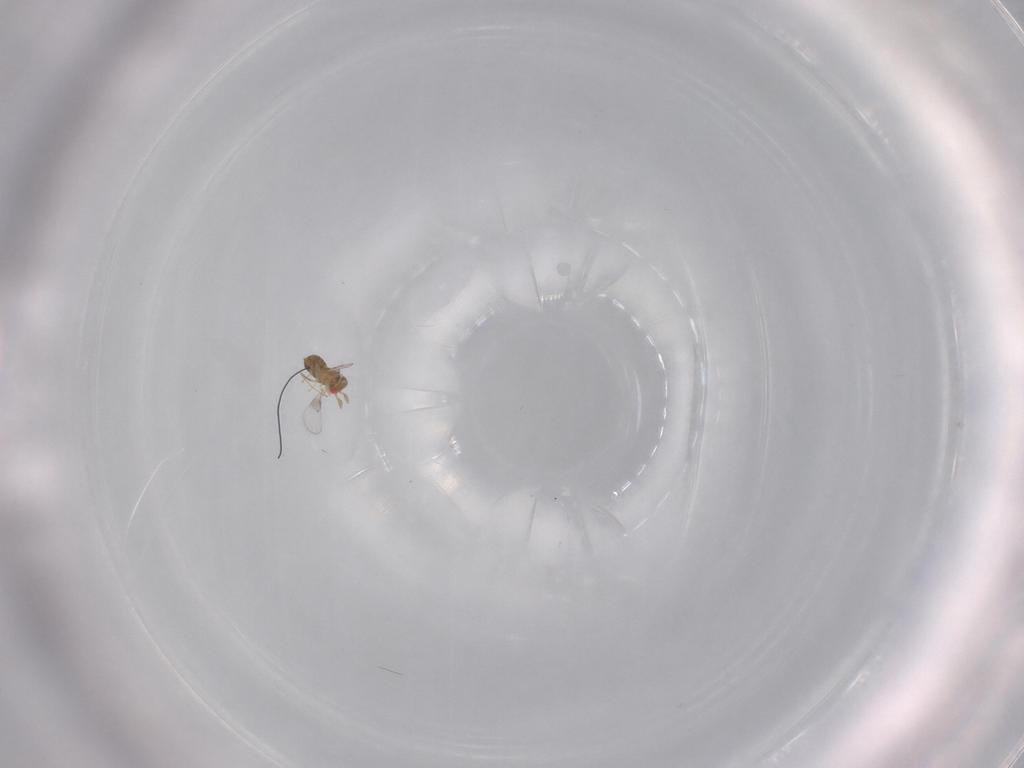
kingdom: Animalia
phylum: Arthropoda
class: Insecta
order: Hymenoptera
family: Trichogrammatidae
